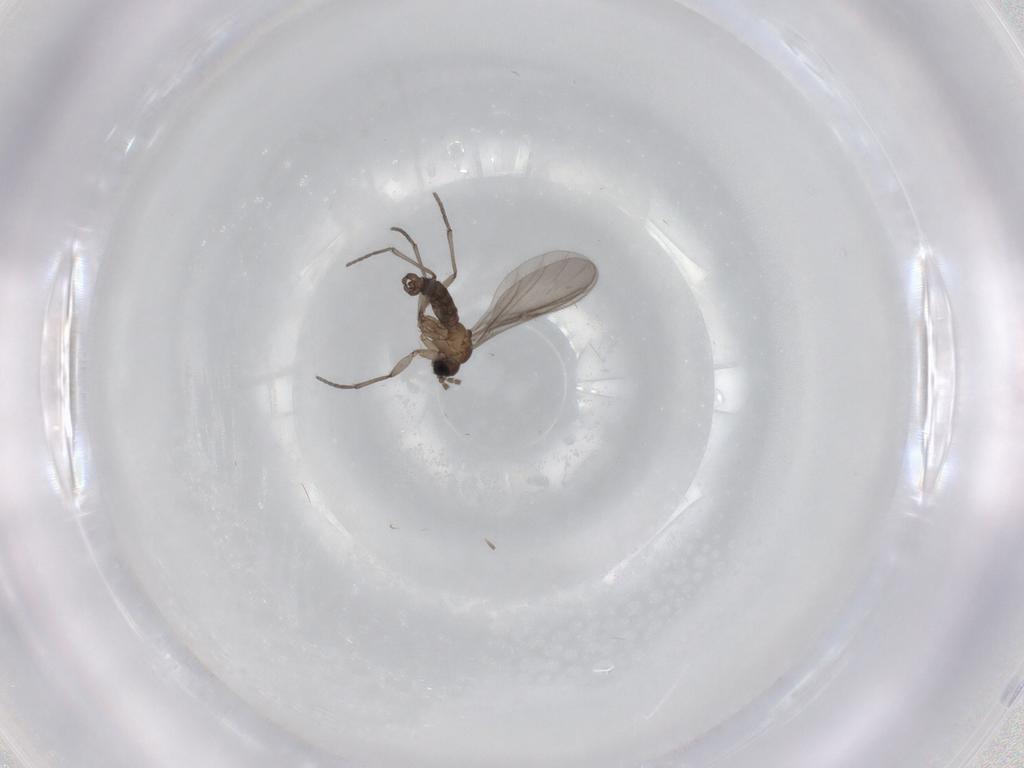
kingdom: Animalia
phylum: Arthropoda
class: Insecta
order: Diptera
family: Sciaridae
